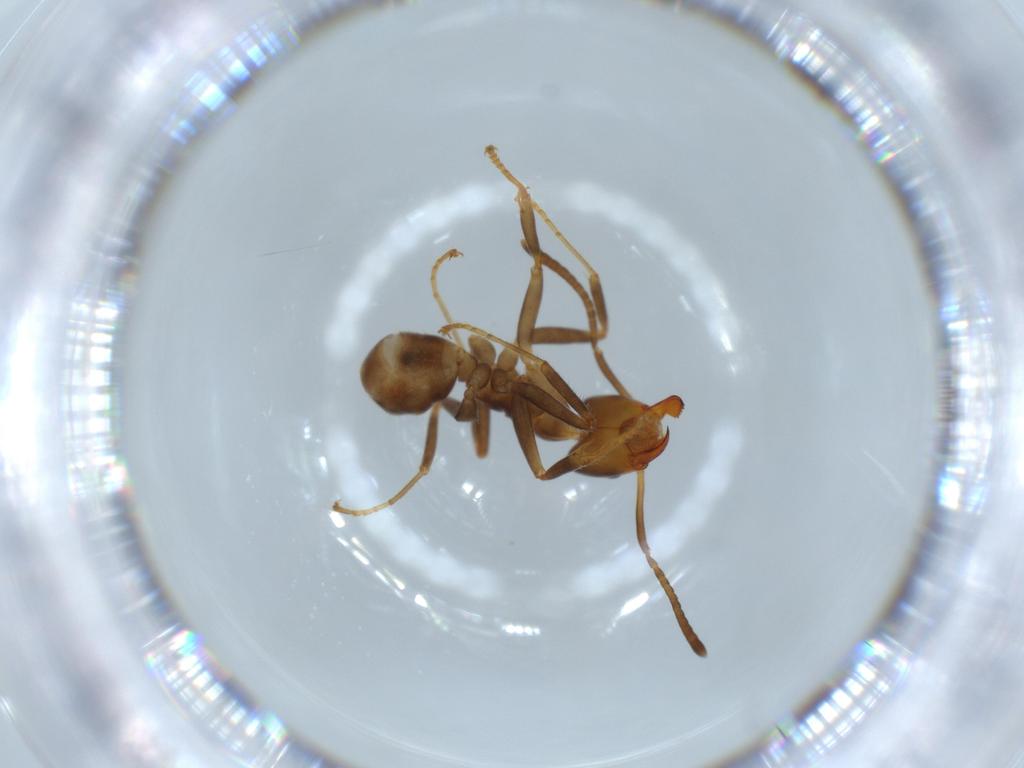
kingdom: Animalia
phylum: Arthropoda
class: Insecta
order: Hymenoptera
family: Formicidae
